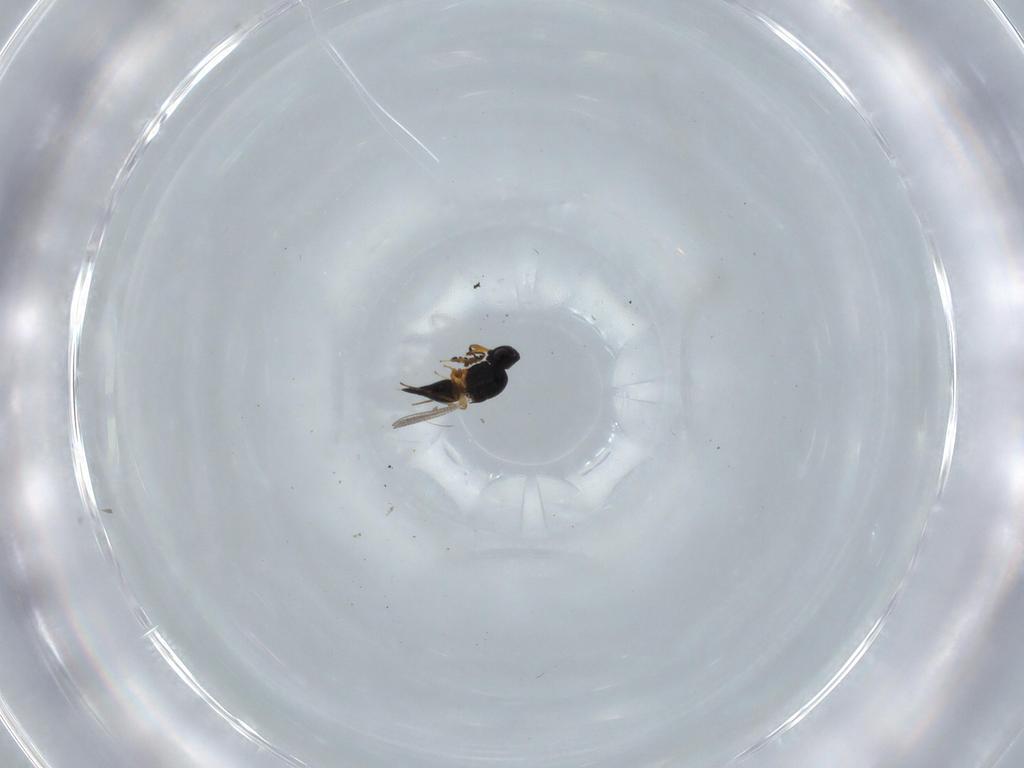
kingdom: Animalia
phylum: Arthropoda
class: Insecta
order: Hymenoptera
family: Platygastridae
